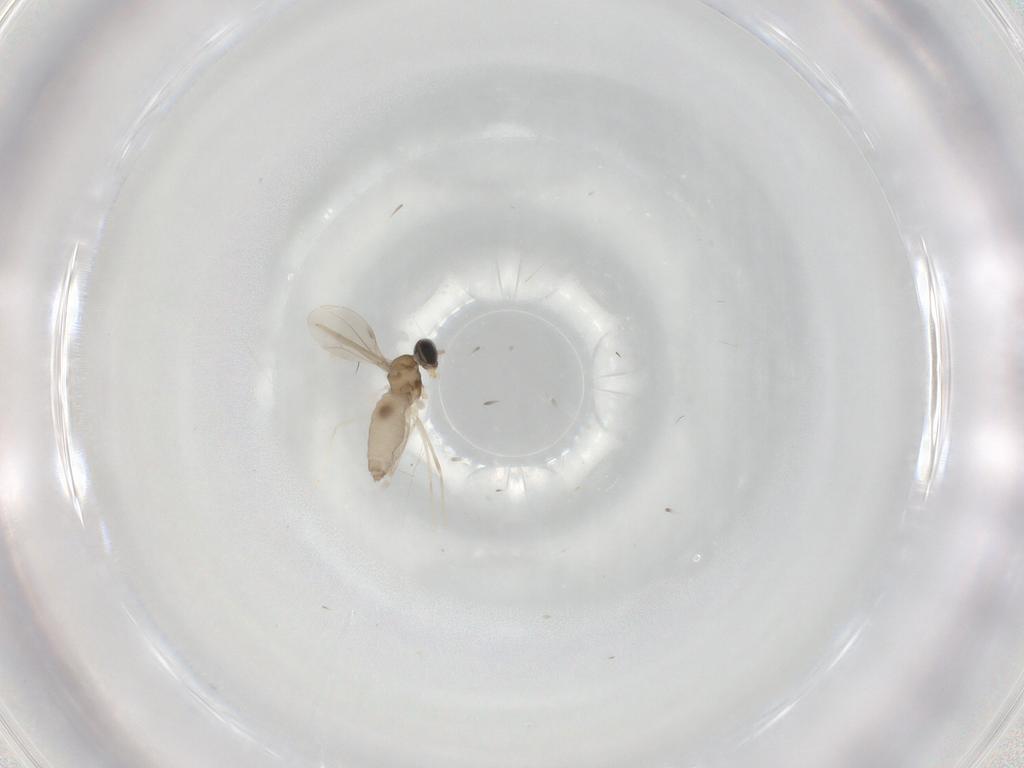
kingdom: Animalia
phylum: Arthropoda
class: Insecta
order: Diptera
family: Cecidomyiidae
